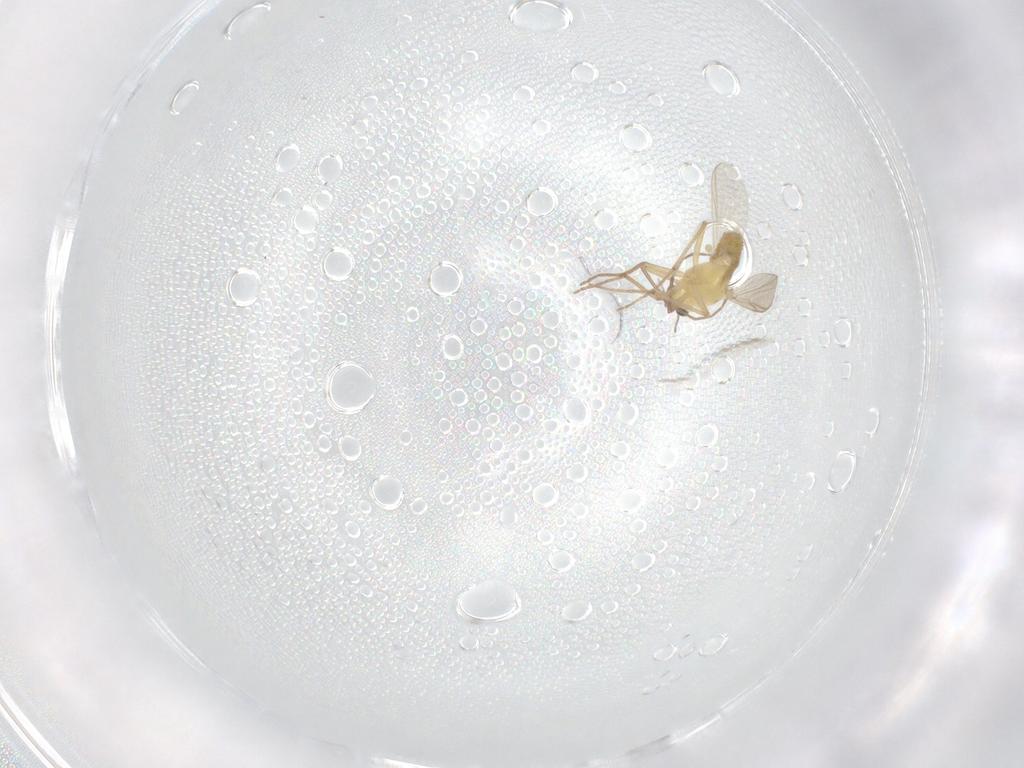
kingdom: Animalia
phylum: Arthropoda
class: Insecta
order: Diptera
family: Chironomidae
